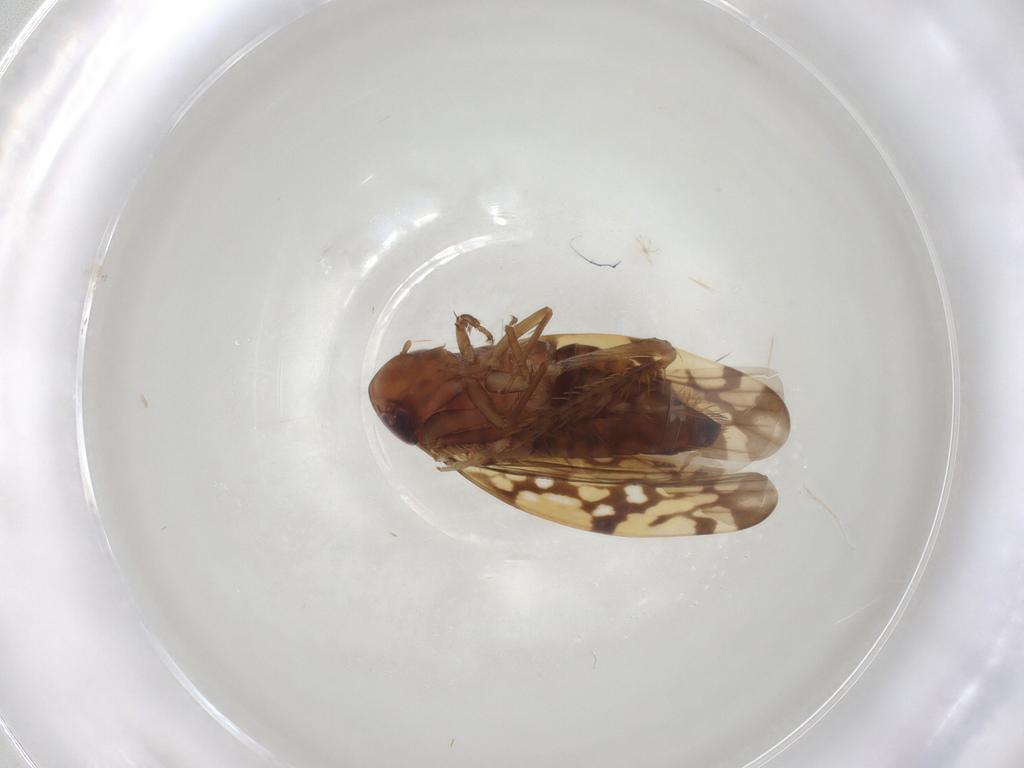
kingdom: Animalia
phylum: Arthropoda
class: Insecta
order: Hemiptera
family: Cicadellidae
